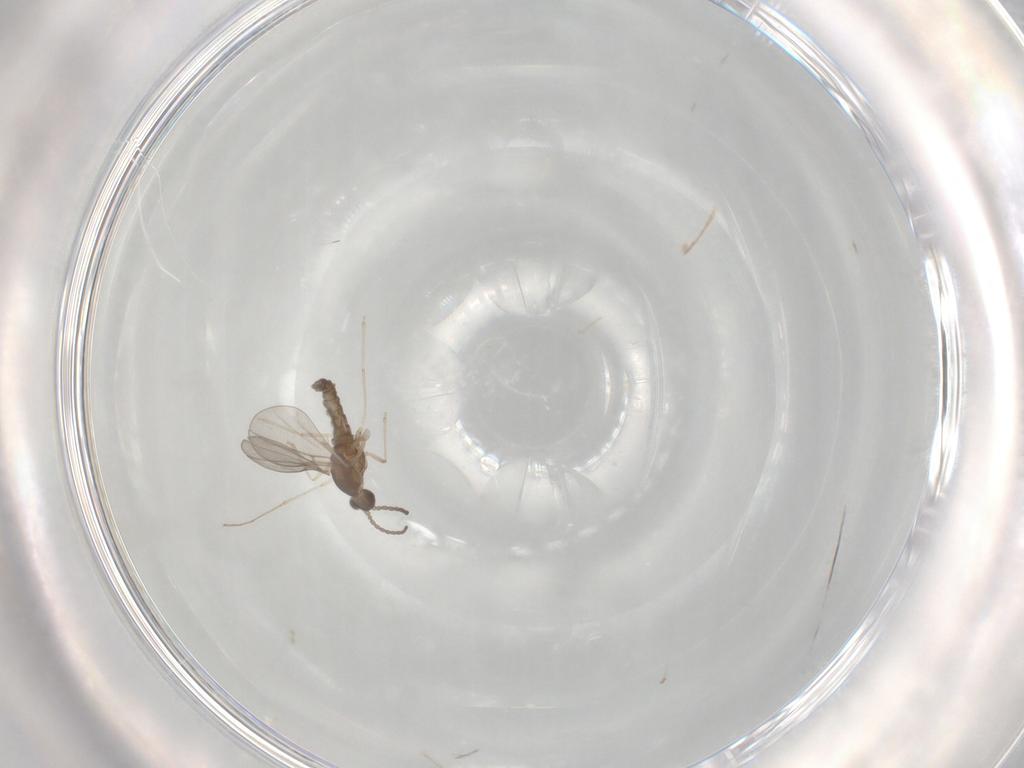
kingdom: Animalia
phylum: Arthropoda
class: Insecta
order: Diptera
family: Cecidomyiidae
